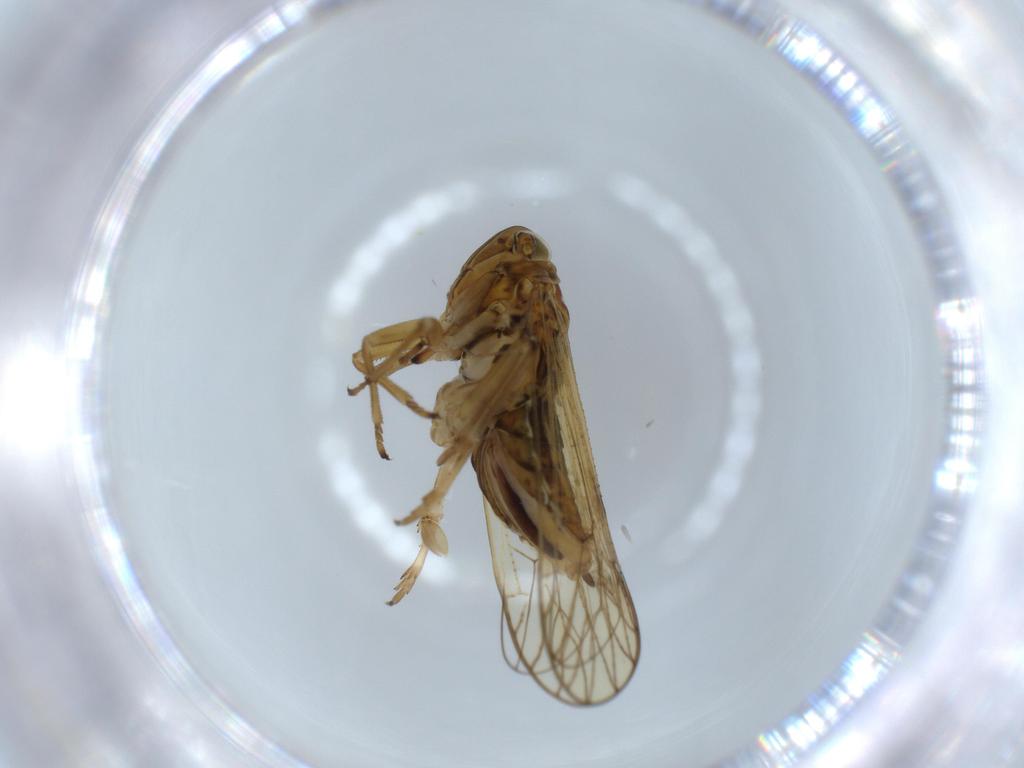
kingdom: Animalia
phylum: Arthropoda
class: Insecta
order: Hemiptera
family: Delphacidae
